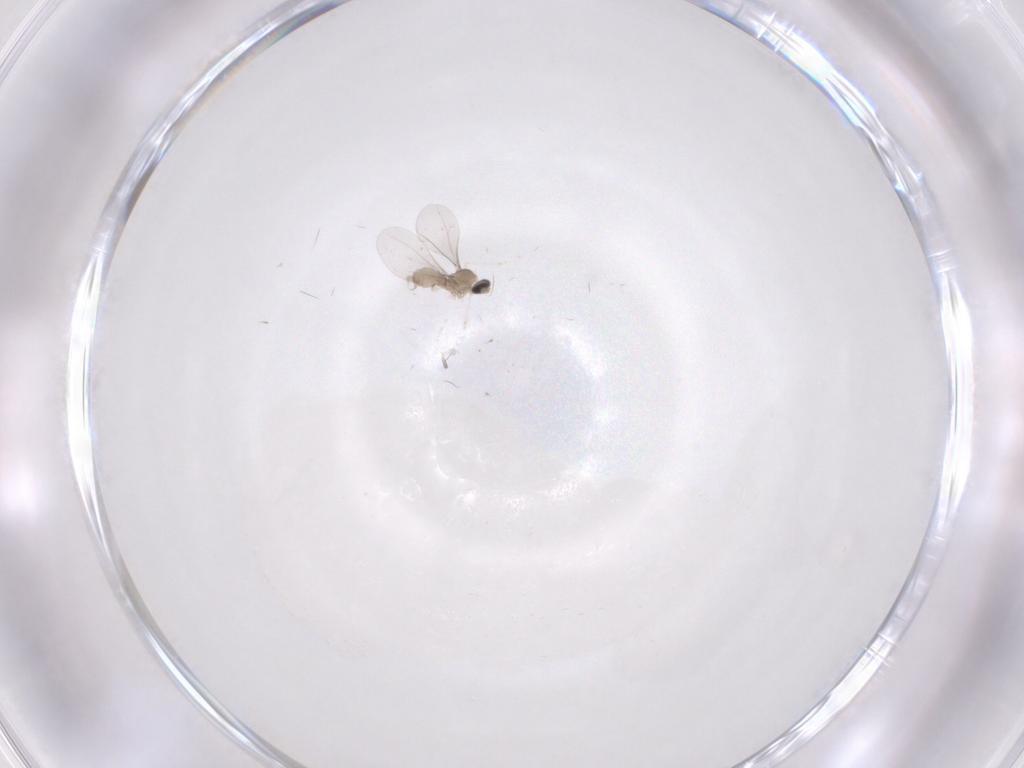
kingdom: Animalia
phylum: Arthropoda
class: Insecta
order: Diptera
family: Cecidomyiidae
